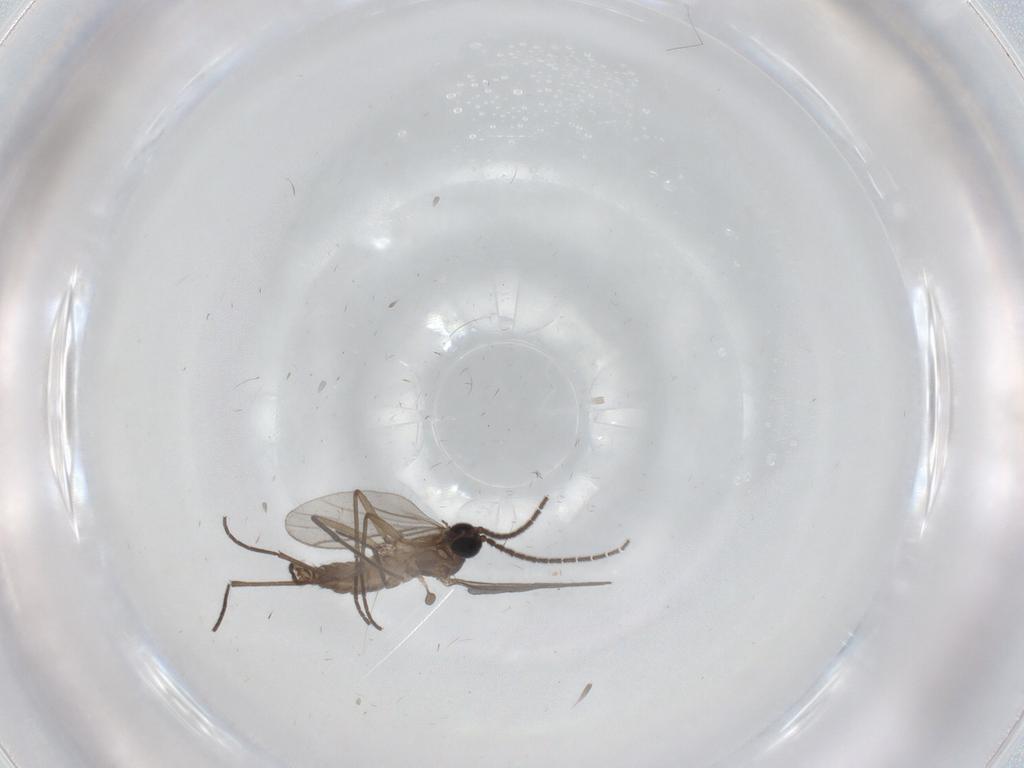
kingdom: Animalia
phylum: Arthropoda
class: Insecta
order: Diptera
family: Sciaridae
